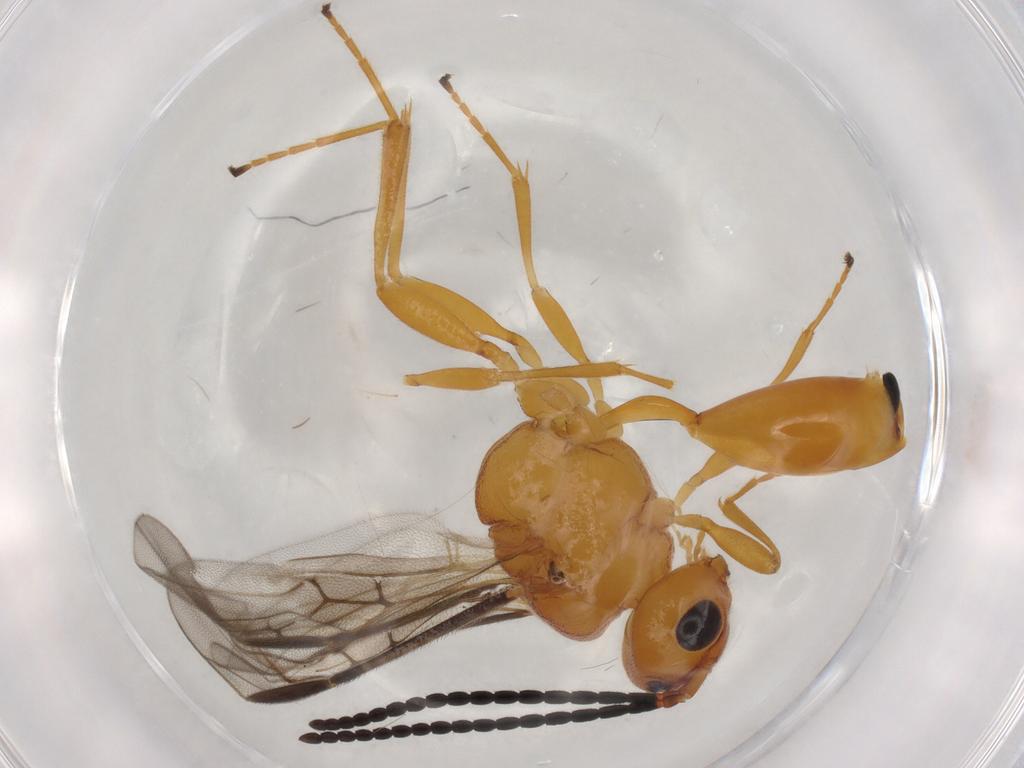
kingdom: Animalia
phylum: Arthropoda
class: Insecta
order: Hymenoptera
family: Braconidae
